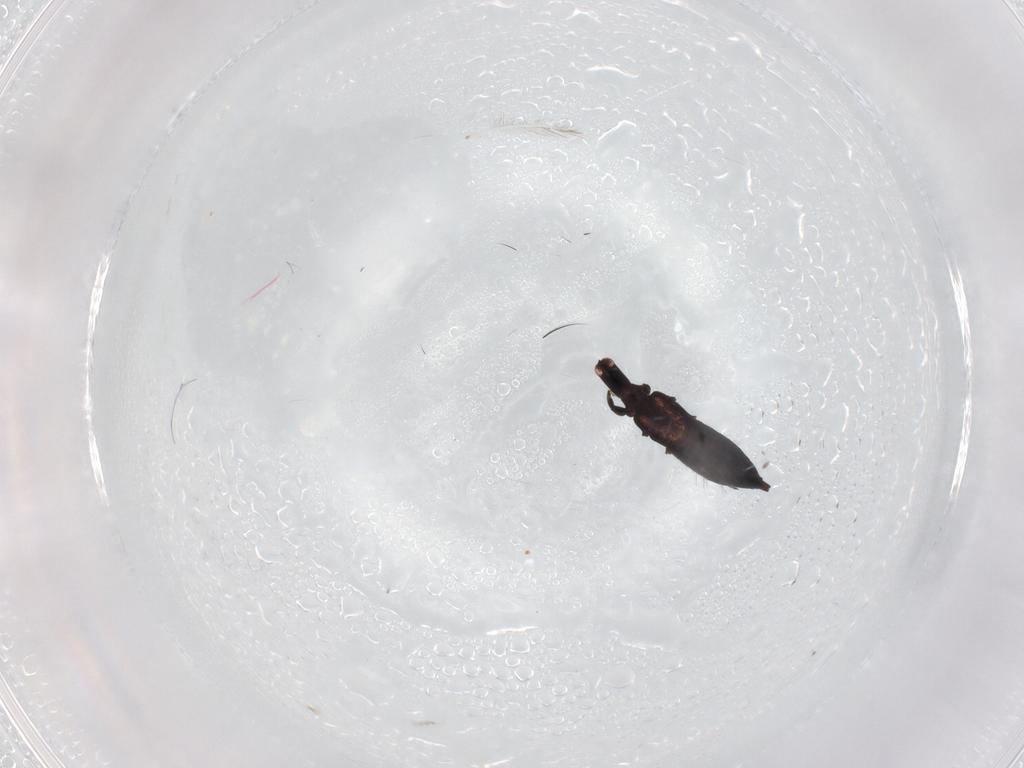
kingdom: Animalia
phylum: Arthropoda
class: Insecta
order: Thysanoptera
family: Phlaeothripidae
